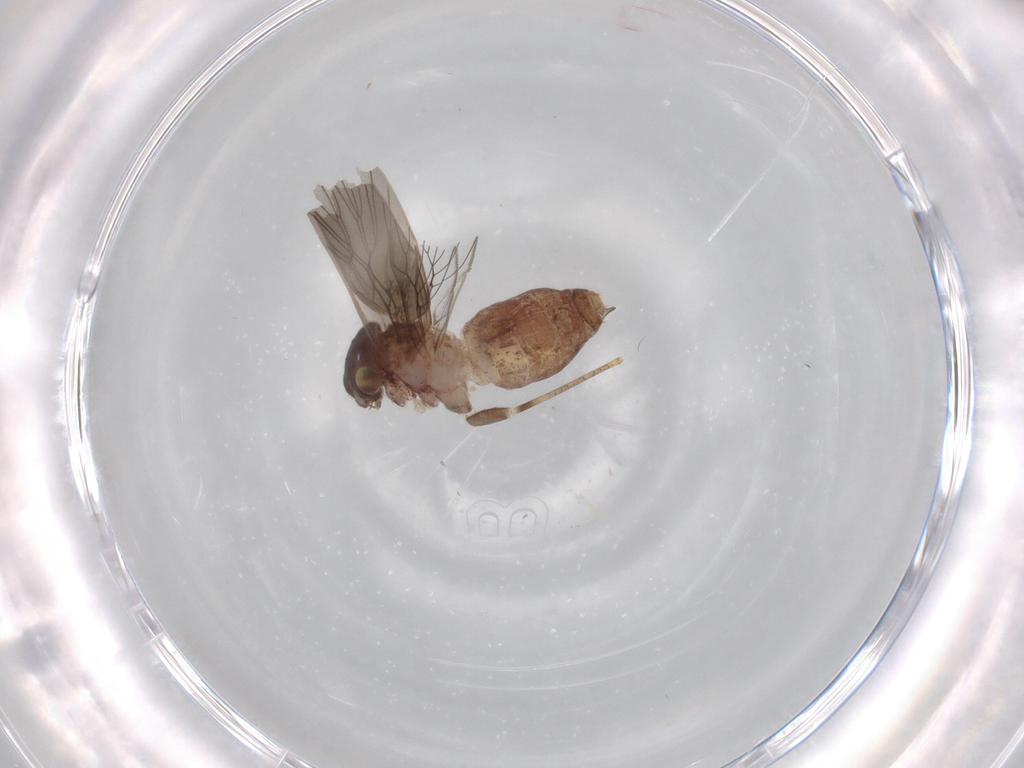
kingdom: Animalia
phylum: Arthropoda
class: Insecta
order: Psocodea
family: Lepidopsocidae
